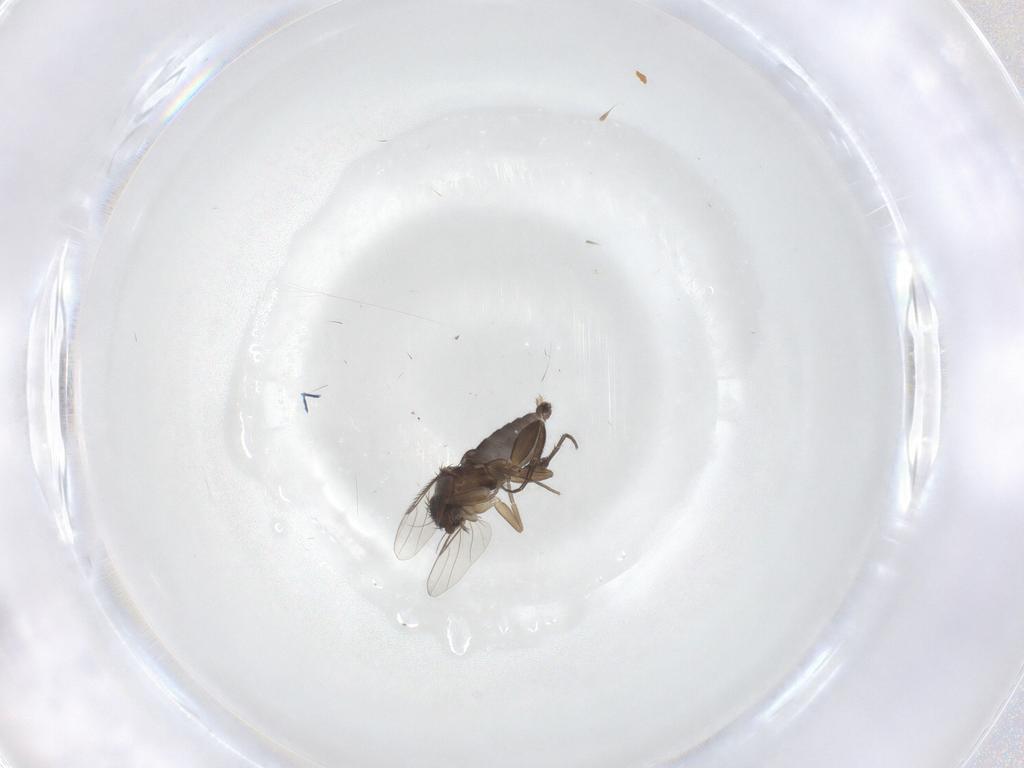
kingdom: Animalia
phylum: Arthropoda
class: Insecta
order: Diptera
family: Phoridae
